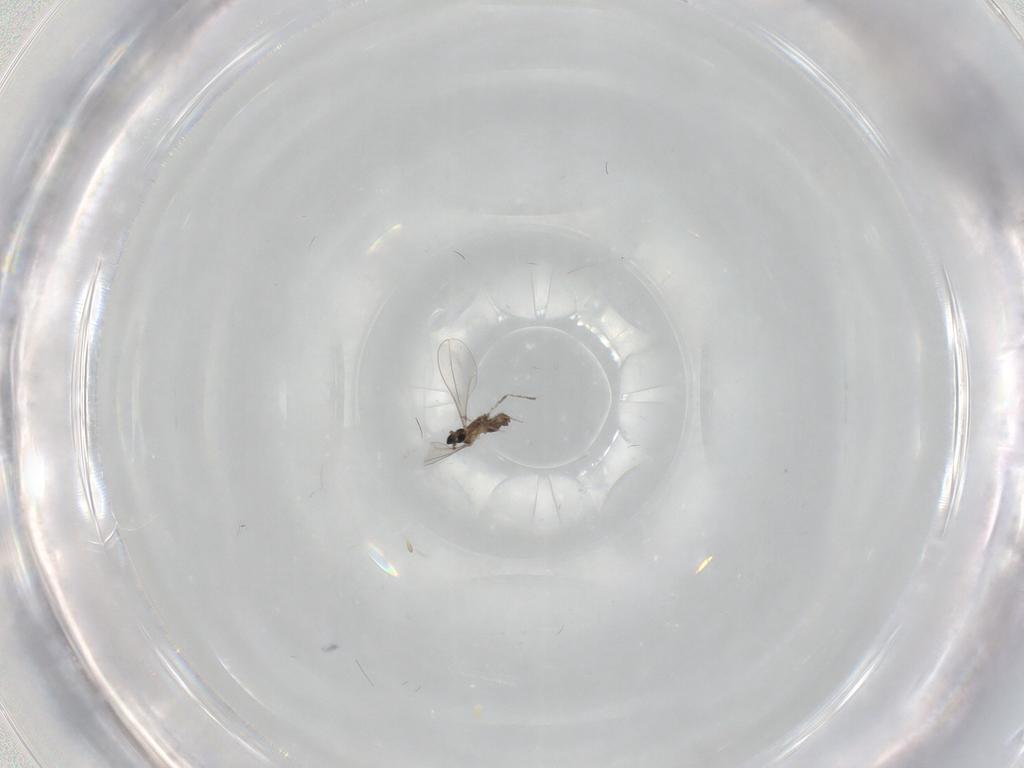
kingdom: Animalia
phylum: Arthropoda
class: Insecta
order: Diptera
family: Cecidomyiidae
